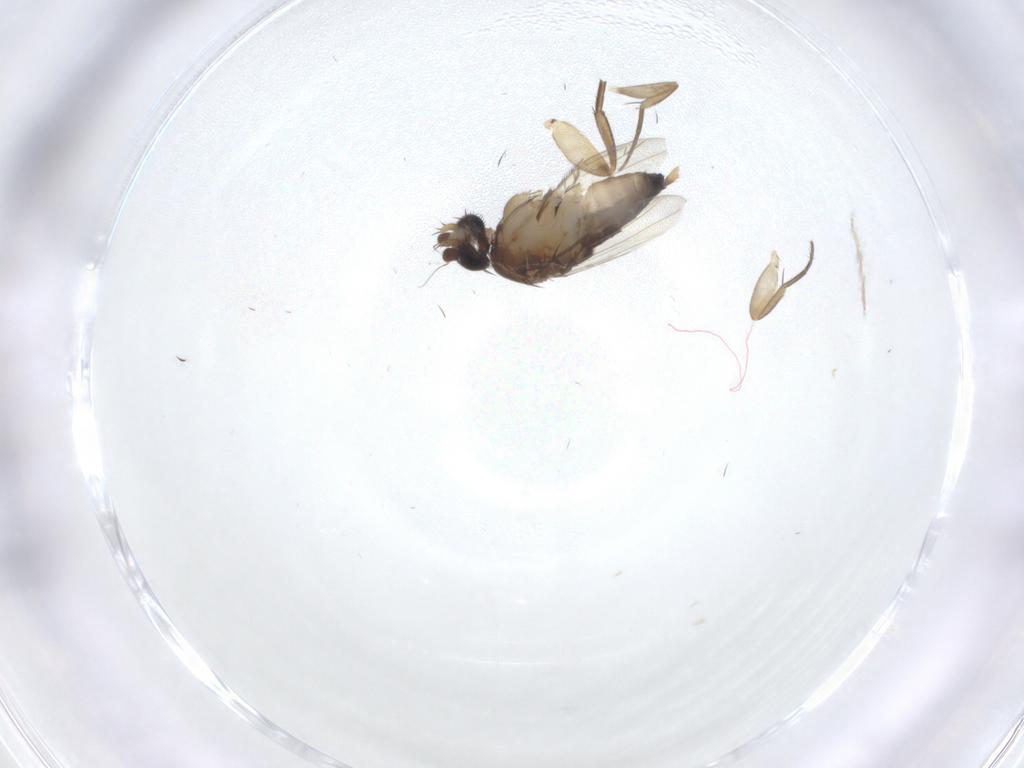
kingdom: Animalia
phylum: Arthropoda
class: Insecta
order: Diptera
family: Chironomidae
